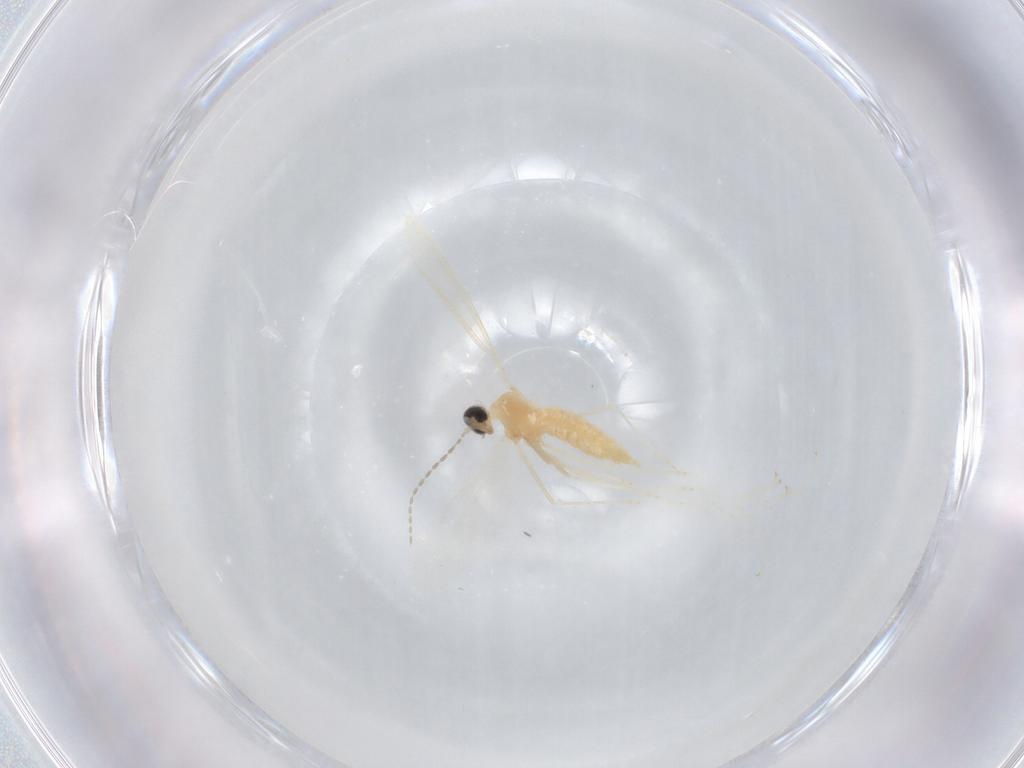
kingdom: Animalia
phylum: Arthropoda
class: Insecta
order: Diptera
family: Cecidomyiidae
